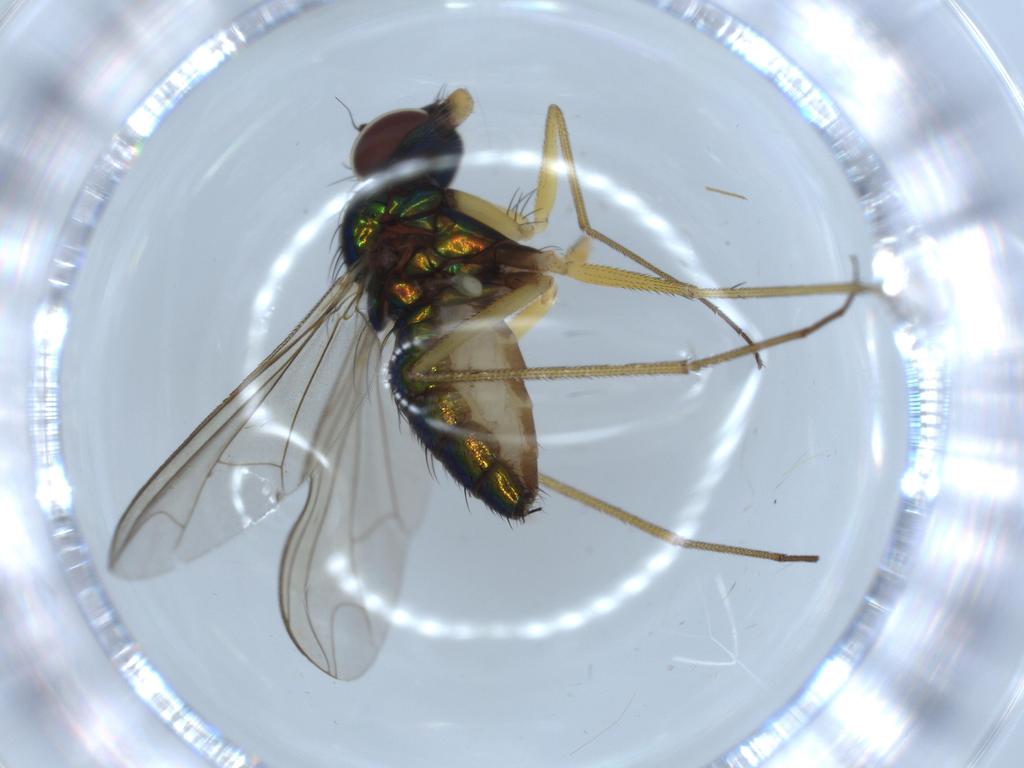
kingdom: Animalia
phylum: Arthropoda
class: Insecta
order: Diptera
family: Dolichopodidae
